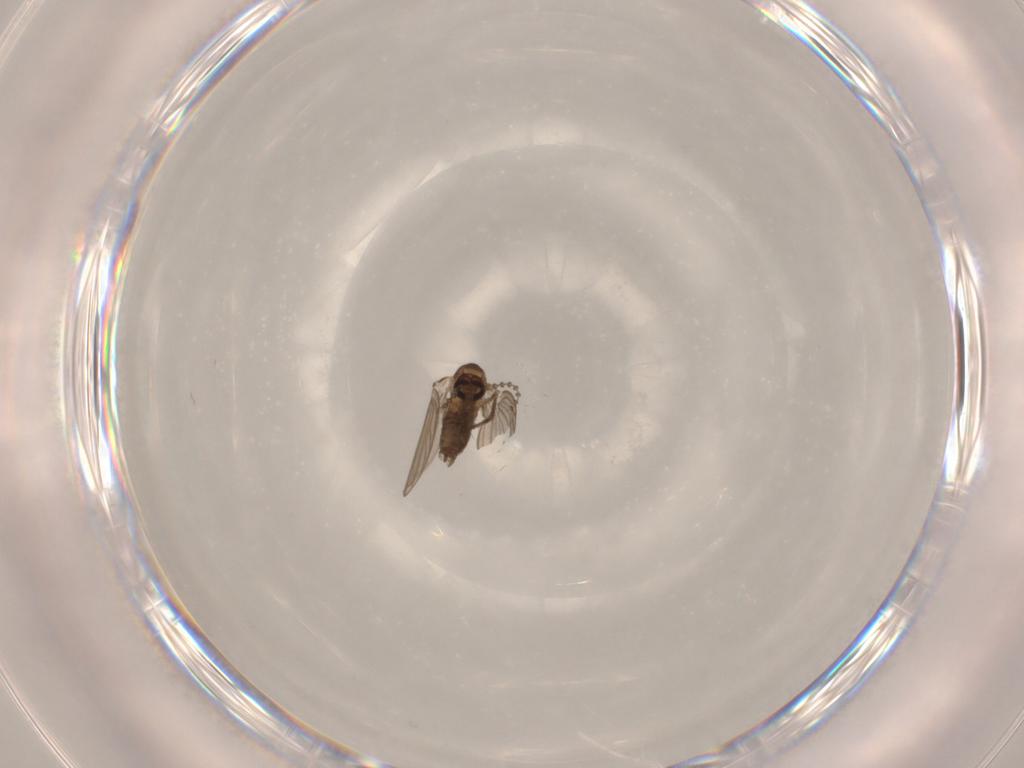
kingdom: Animalia
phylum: Arthropoda
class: Insecta
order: Diptera
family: Psychodidae
